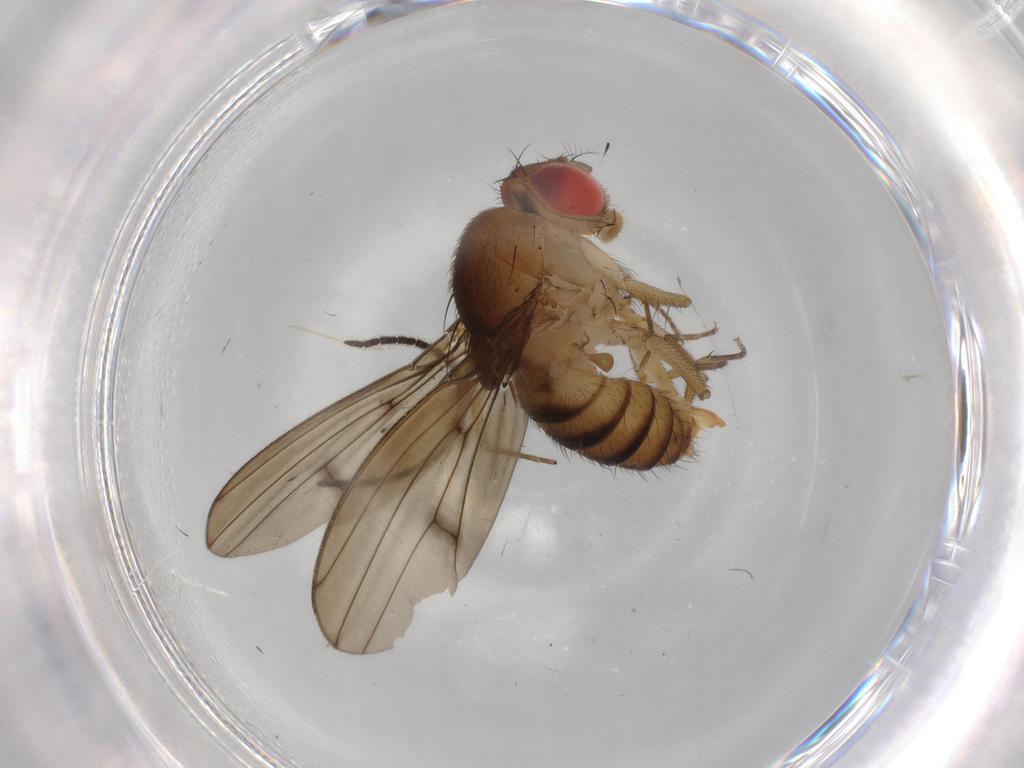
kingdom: Animalia
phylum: Arthropoda
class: Insecta
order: Diptera
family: Drosophilidae
